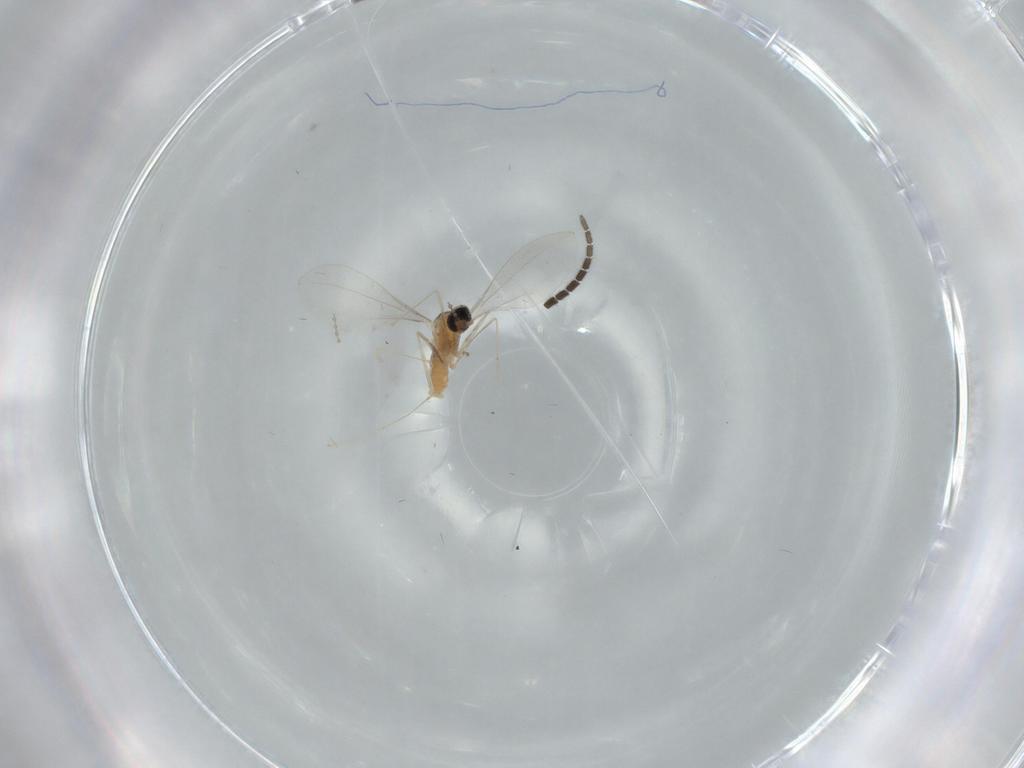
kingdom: Animalia
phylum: Arthropoda
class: Insecta
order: Diptera
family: Cecidomyiidae
